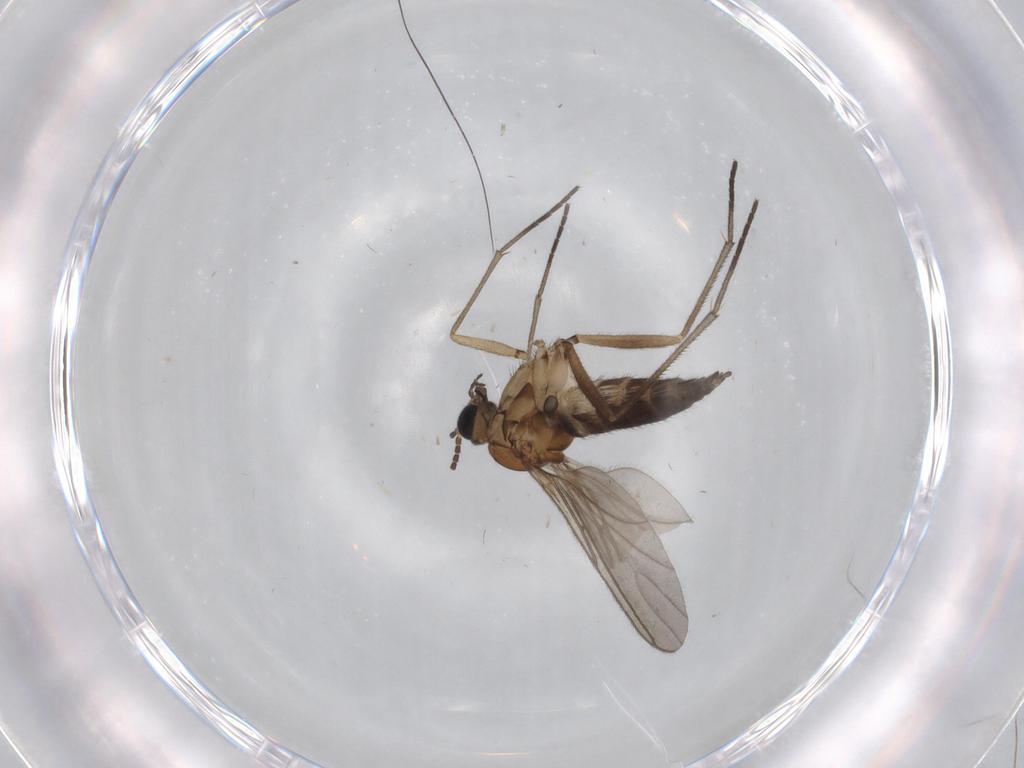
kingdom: Animalia
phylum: Arthropoda
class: Insecta
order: Diptera
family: Sciaridae
